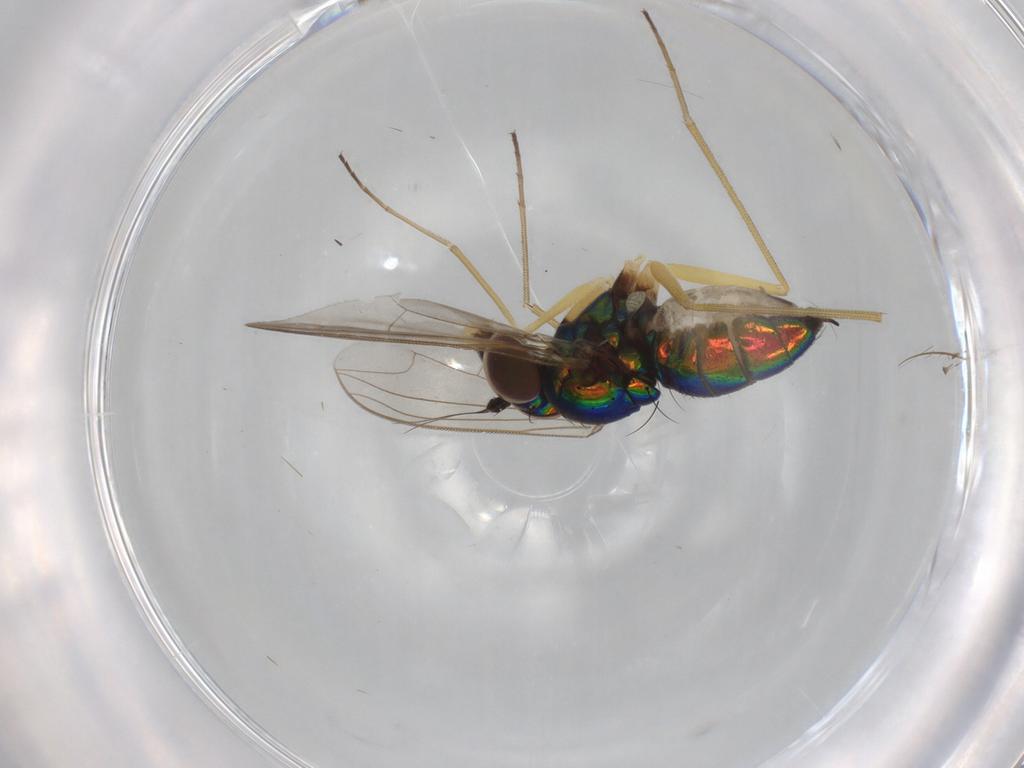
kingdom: Animalia
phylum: Arthropoda
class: Insecta
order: Diptera
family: Dolichopodidae
